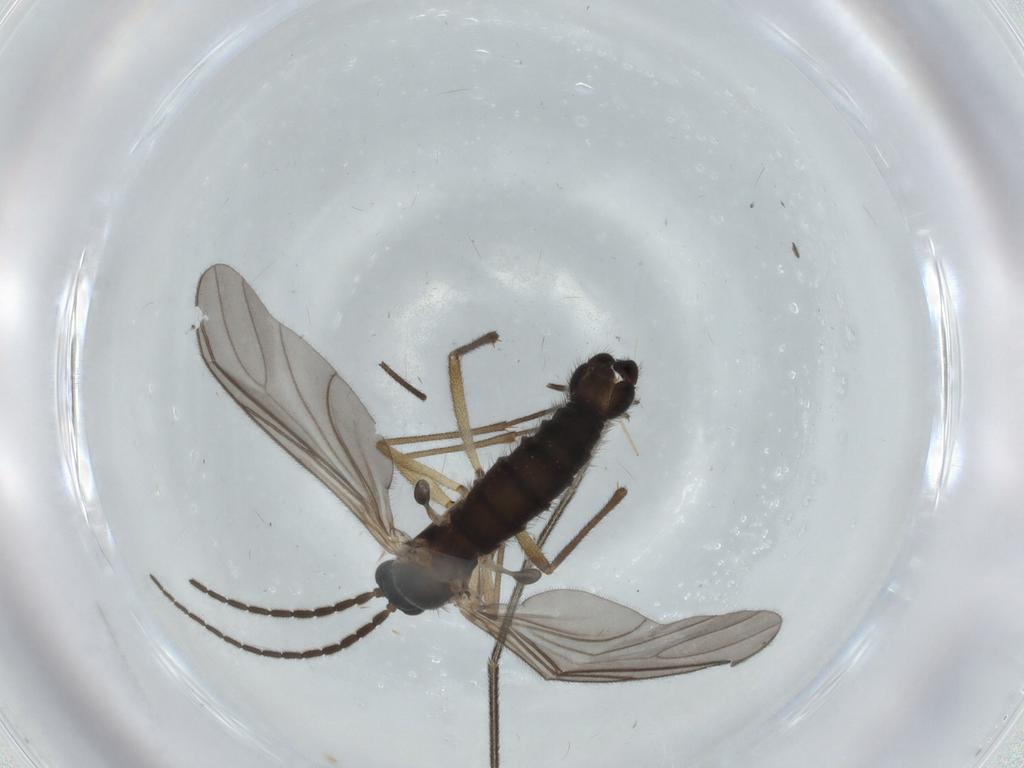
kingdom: Animalia
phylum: Arthropoda
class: Insecta
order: Diptera
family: Sciaridae
